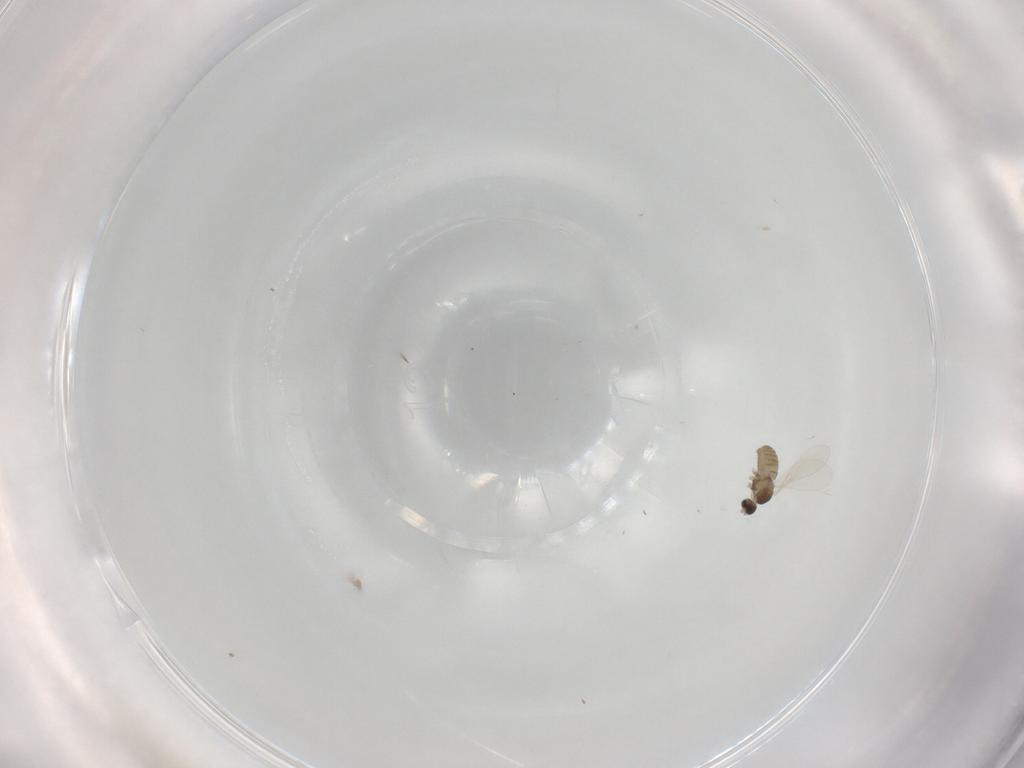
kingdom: Animalia
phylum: Arthropoda
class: Insecta
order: Diptera
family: Cecidomyiidae
